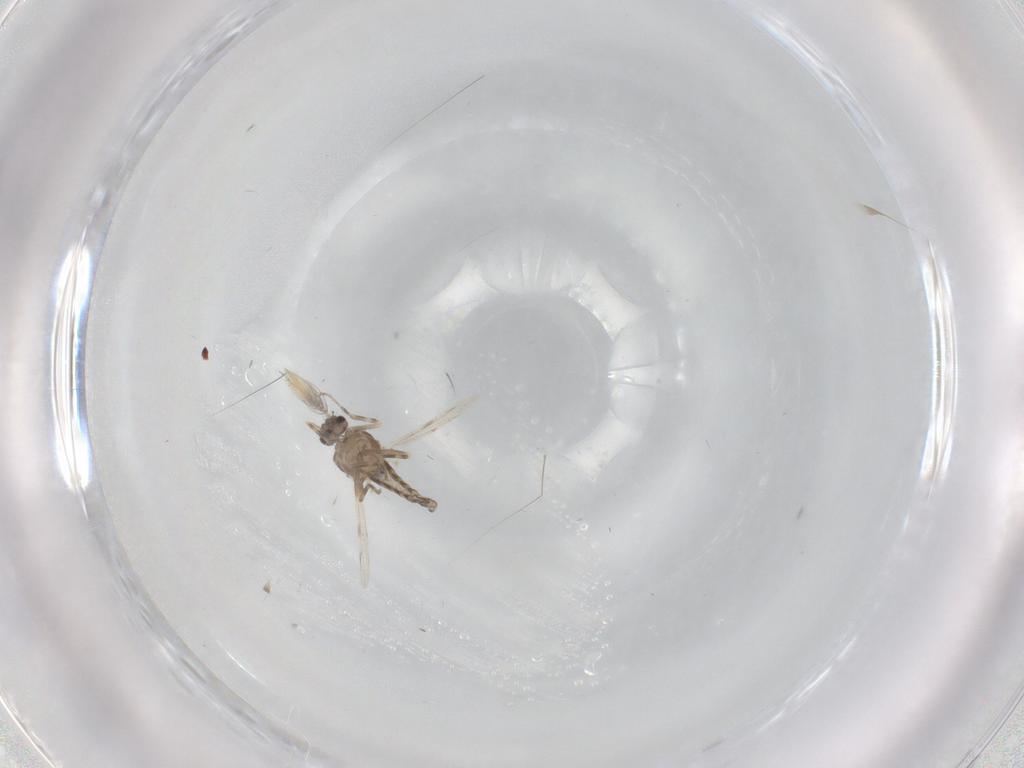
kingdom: Animalia
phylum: Arthropoda
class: Insecta
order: Diptera
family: Ceratopogonidae
